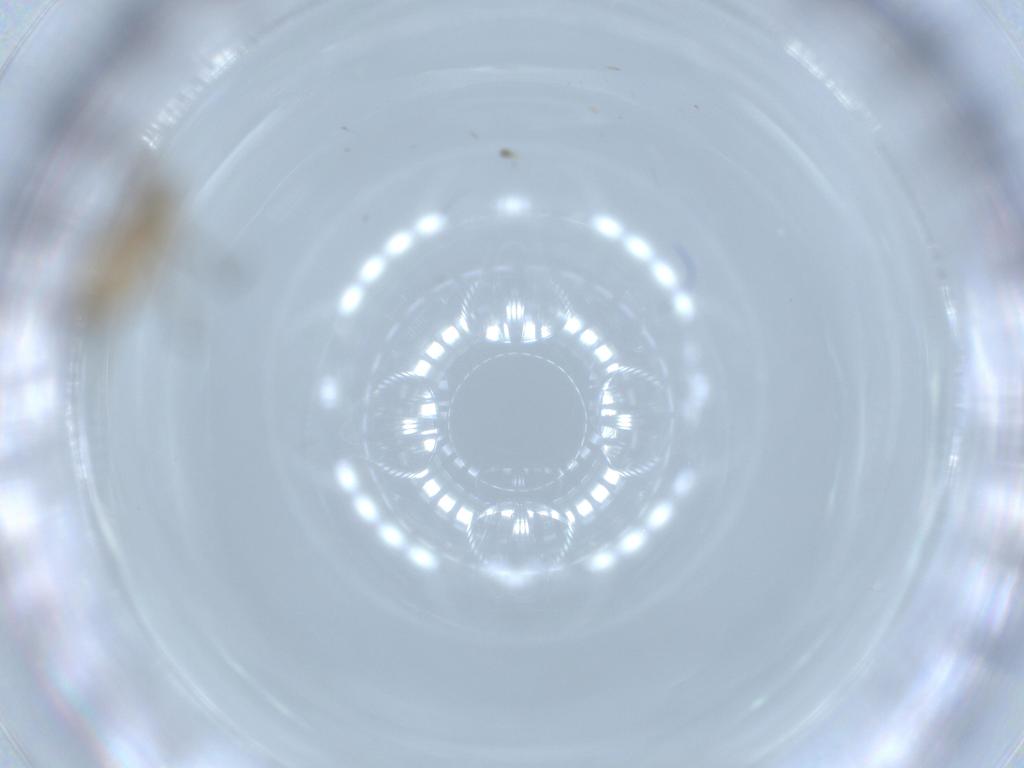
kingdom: Animalia
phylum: Arthropoda
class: Insecta
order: Diptera
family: Cecidomyiidae
